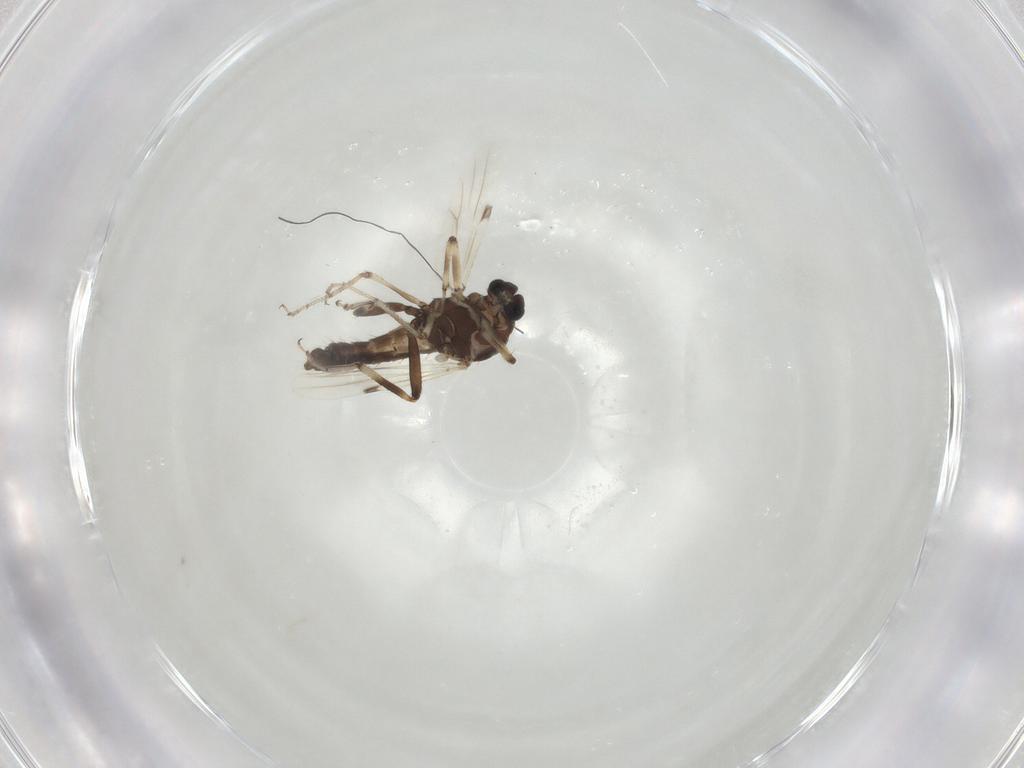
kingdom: Animalia
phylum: Arthropoda
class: Insecta
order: Diptera
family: Ceratopogonidae
